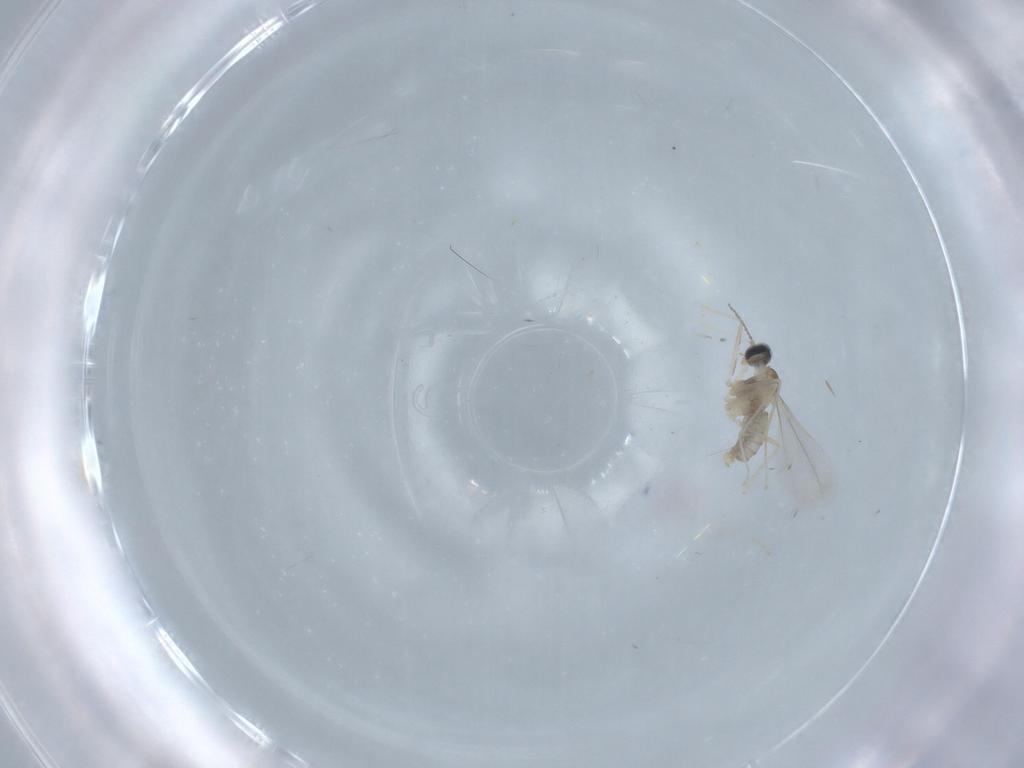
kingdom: Animalia
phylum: Arthropoda
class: Insecta
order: Diptera
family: Cecidomyiidae
